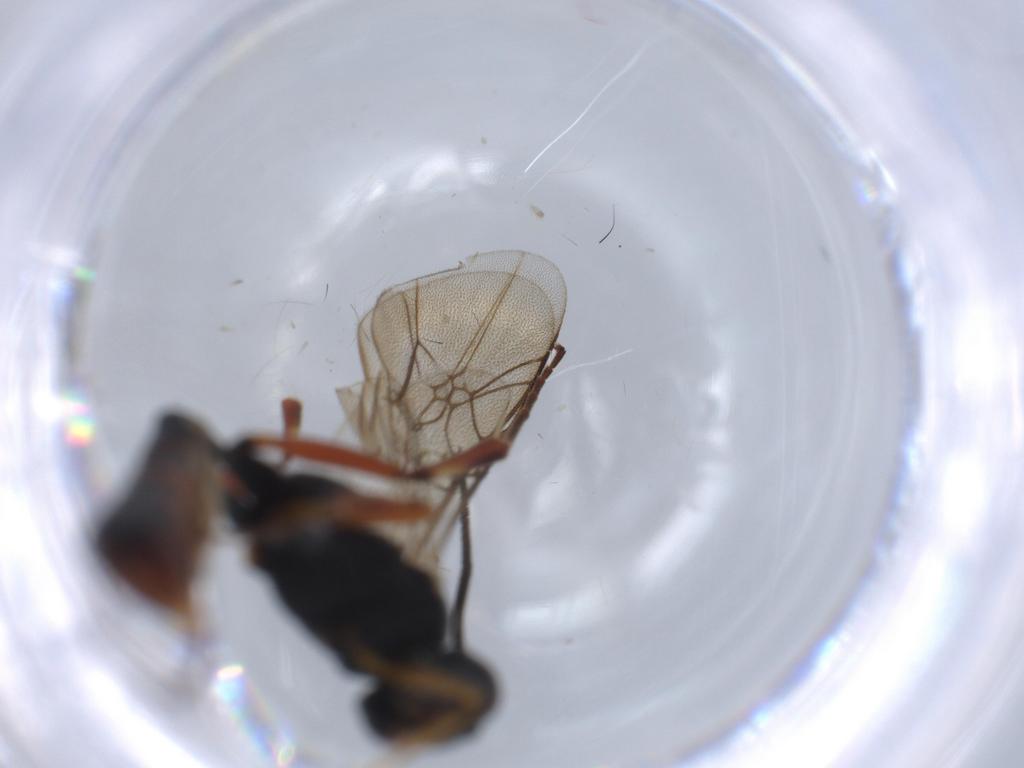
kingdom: Animalia
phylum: Arthropoda
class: Insecta
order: Hymenoptera
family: Ichneumonidae
